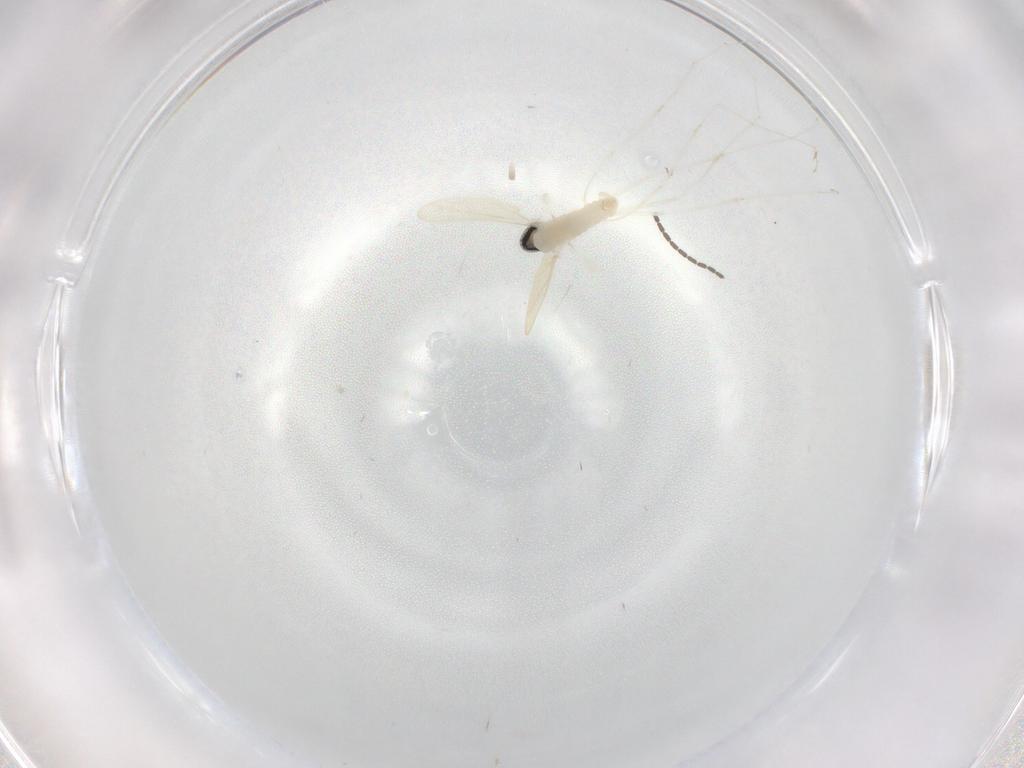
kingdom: Animalia
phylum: Arthropoda
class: Insecta
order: Diptera
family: Cecidomyiidae
